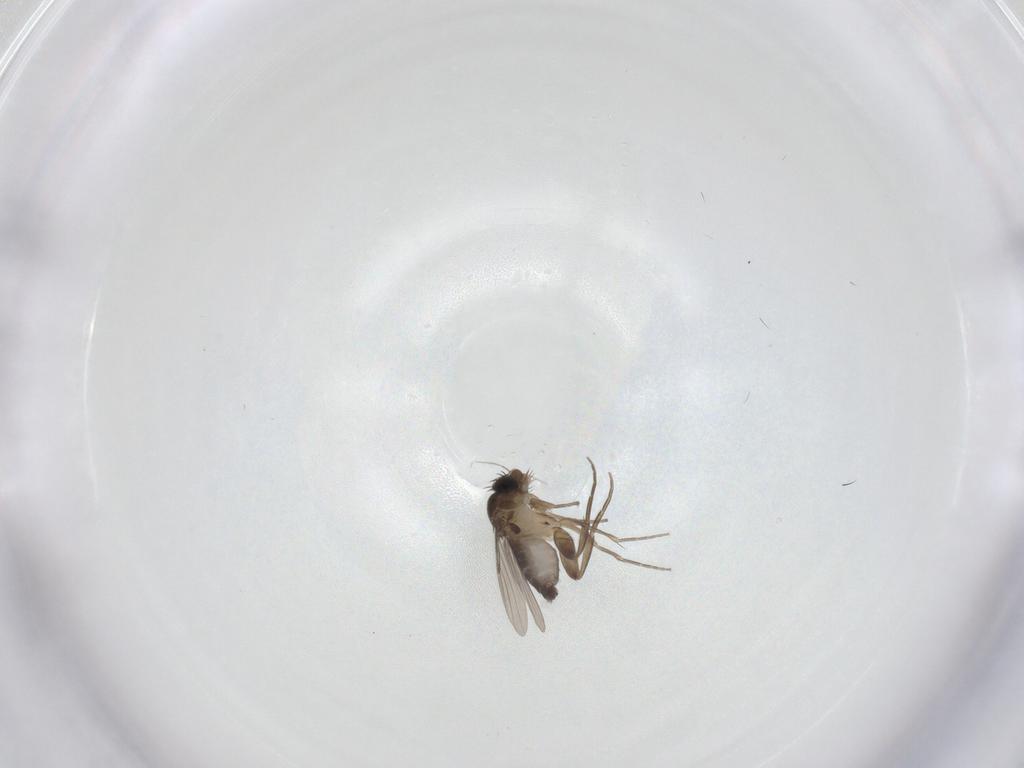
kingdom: Animalia
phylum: Arthropoda
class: Insecta
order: Diptera
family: Phoridae
